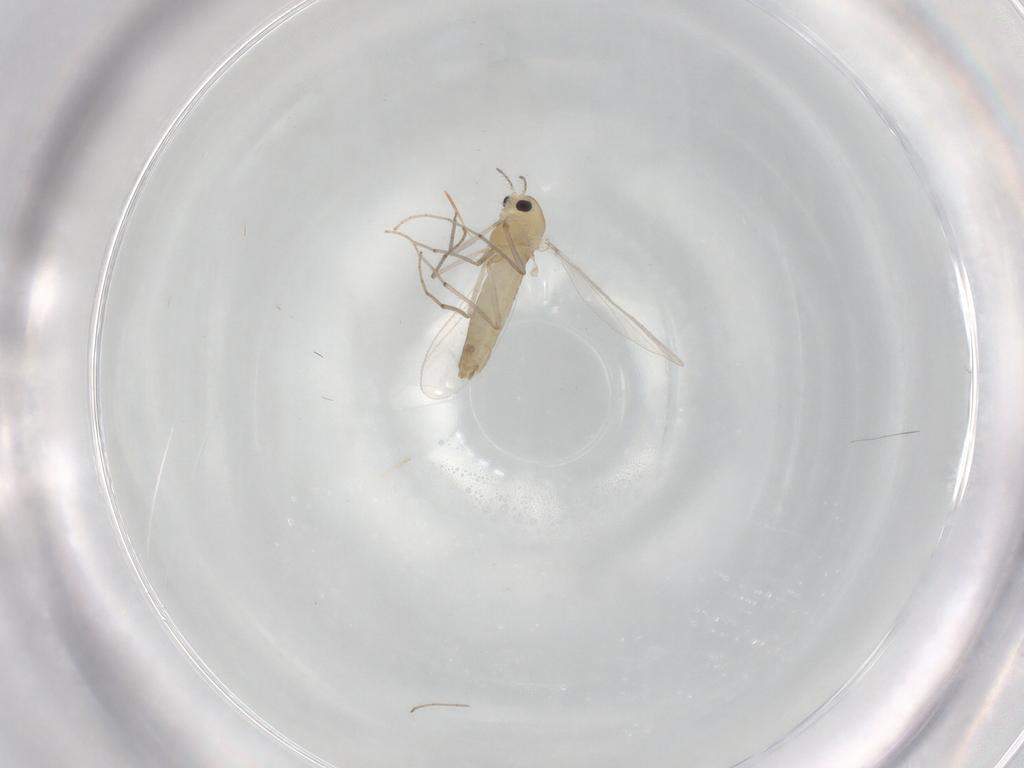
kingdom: Animalia
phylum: Arthropoda
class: Insecta
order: Diptera
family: Chironomidae
